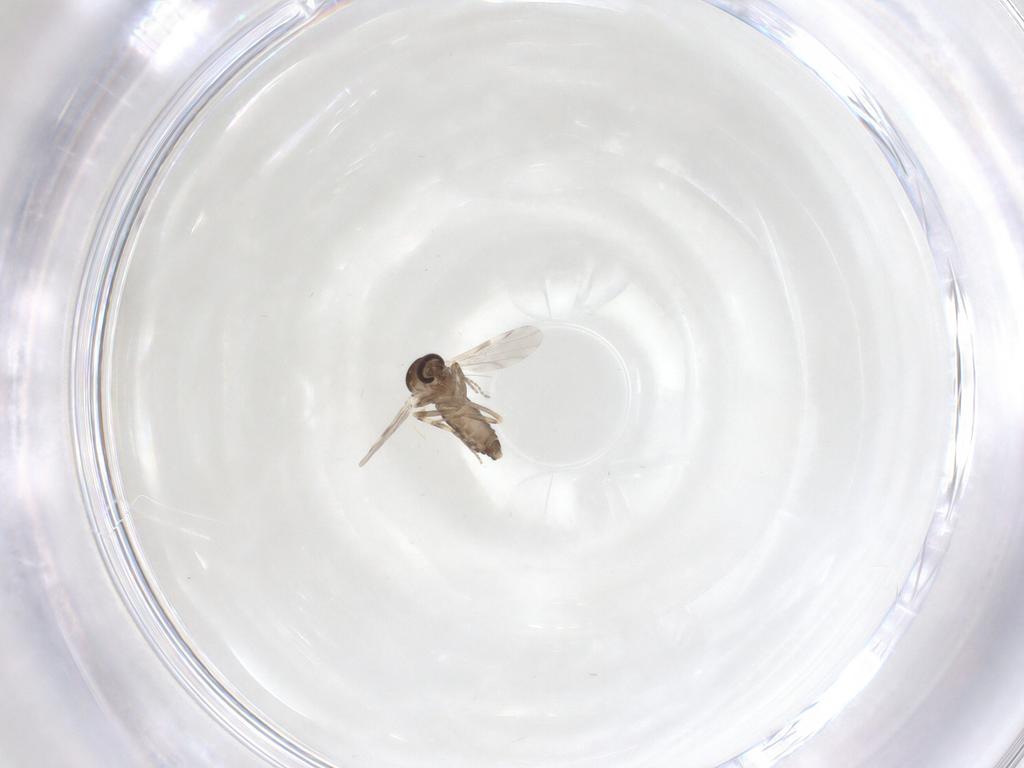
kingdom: Animalia
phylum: Arthropoda
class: Insecta
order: Diptera
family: Ceratopogonidae
